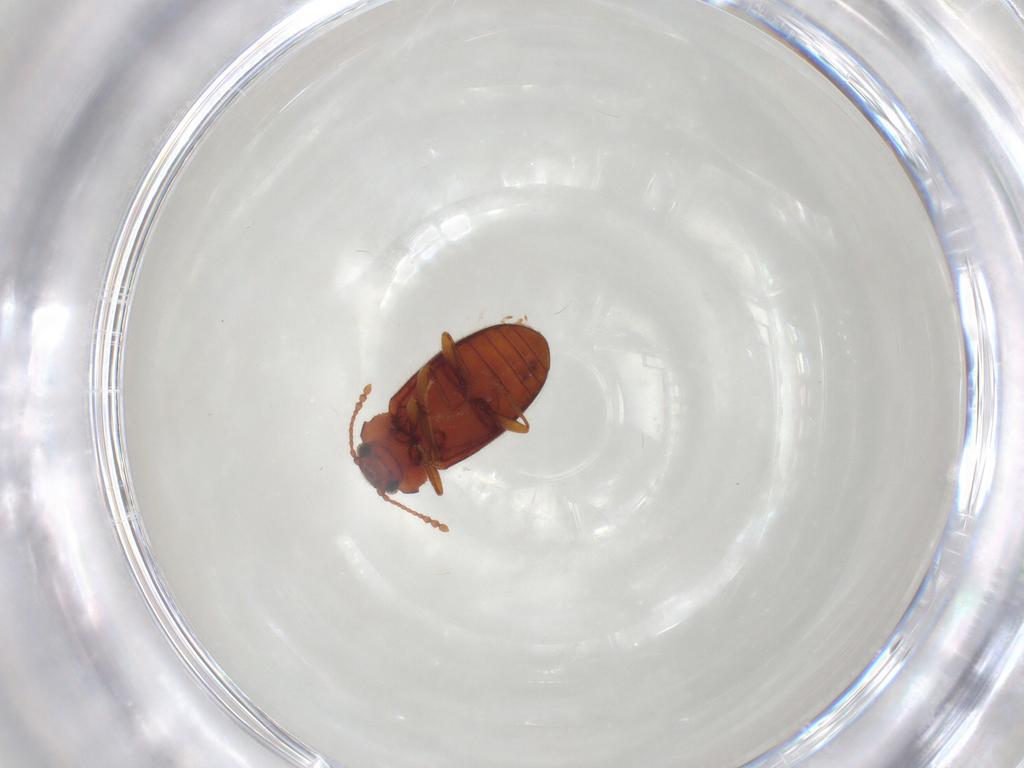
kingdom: Animalia
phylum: Arthropoda
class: Insecta
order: Coleoptera
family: Cryptophagidae
